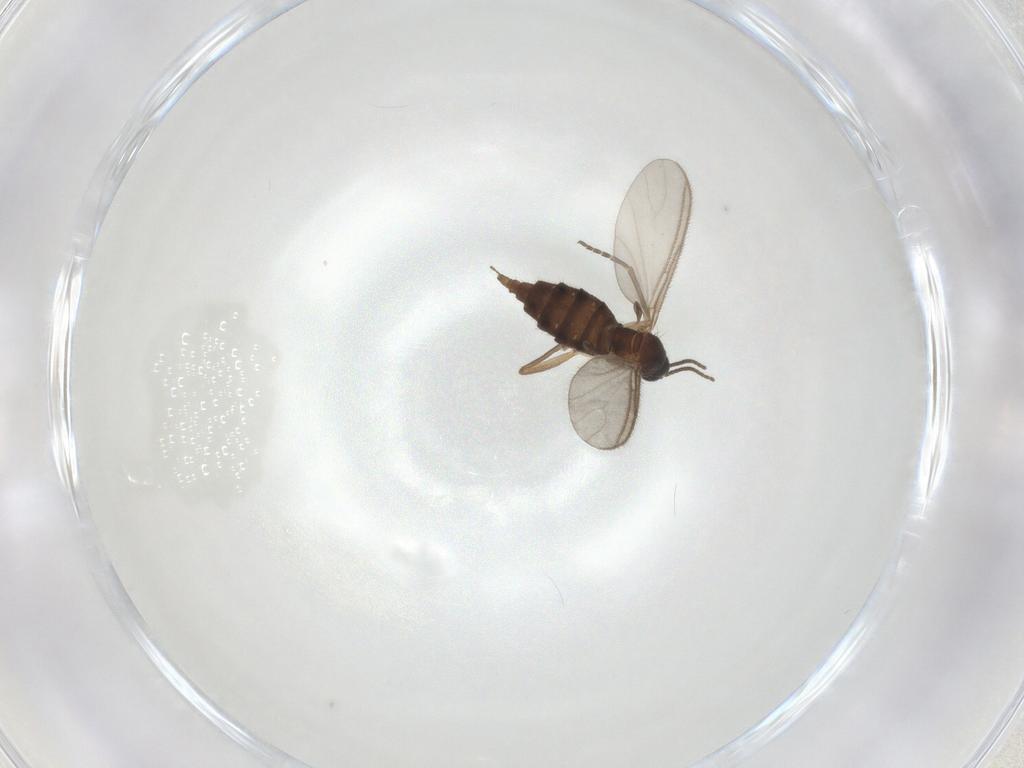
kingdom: Animalia
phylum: Arthropoda
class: Insecta
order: Diptera
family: Sciaridae
